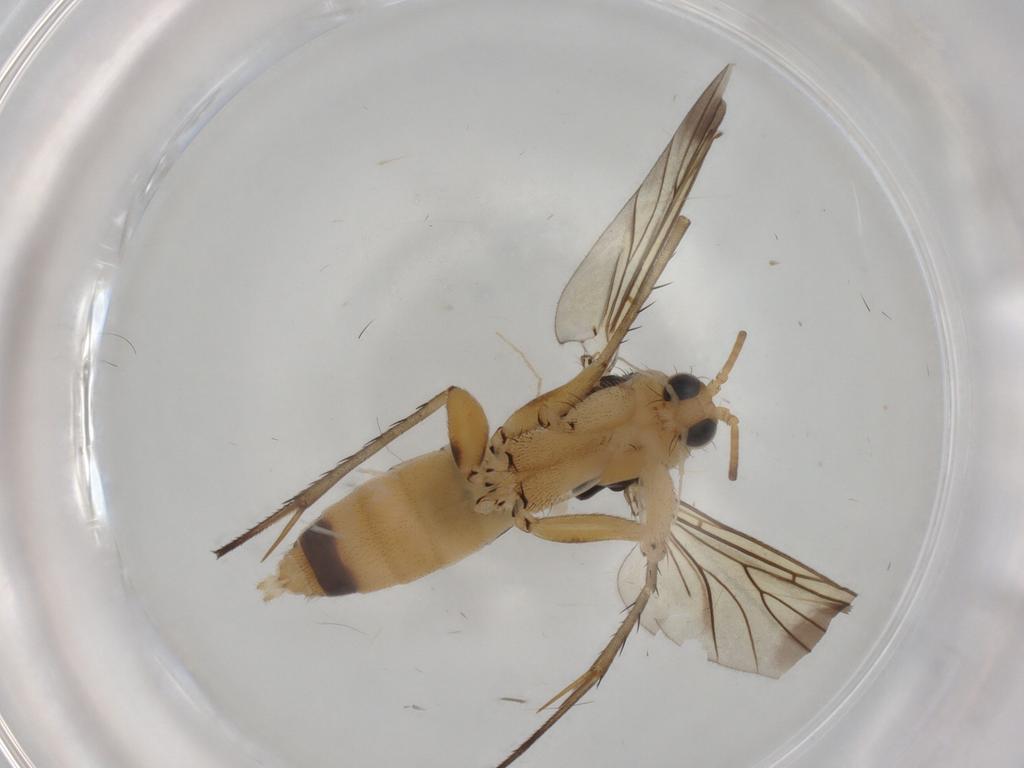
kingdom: Animalia
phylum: Arthropoda
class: Insecta
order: Diptera
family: Mycetophilidae
